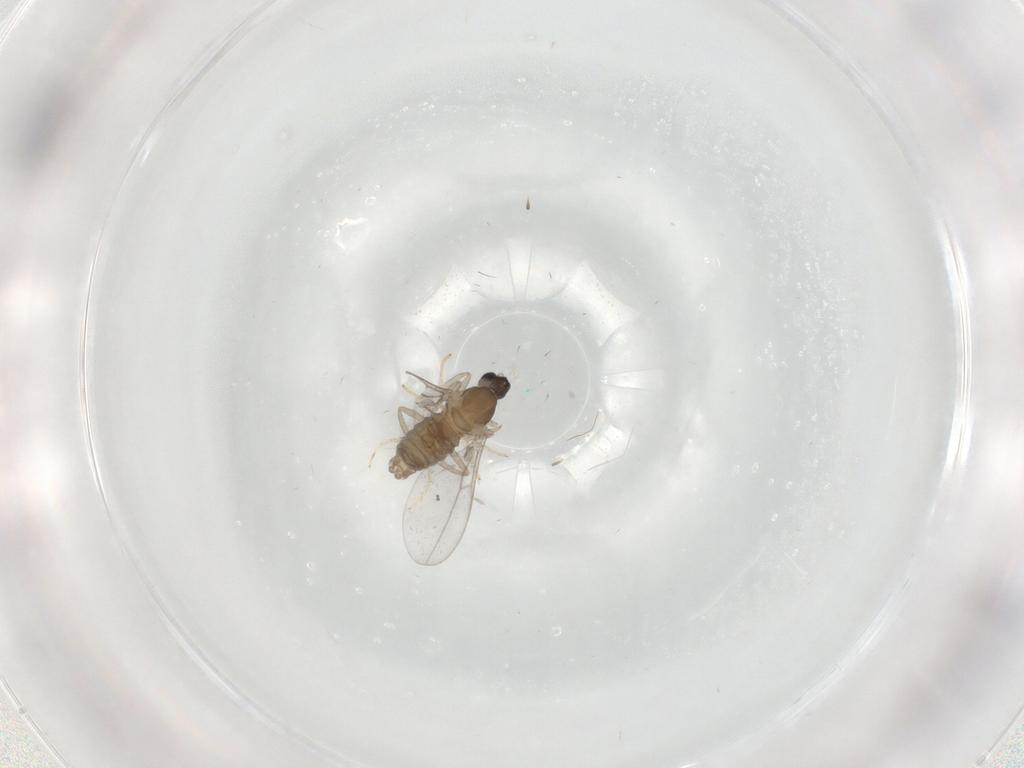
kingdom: Animalia
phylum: Arthropoda
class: Insecta
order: Diptera
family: Cecidomyiidae
